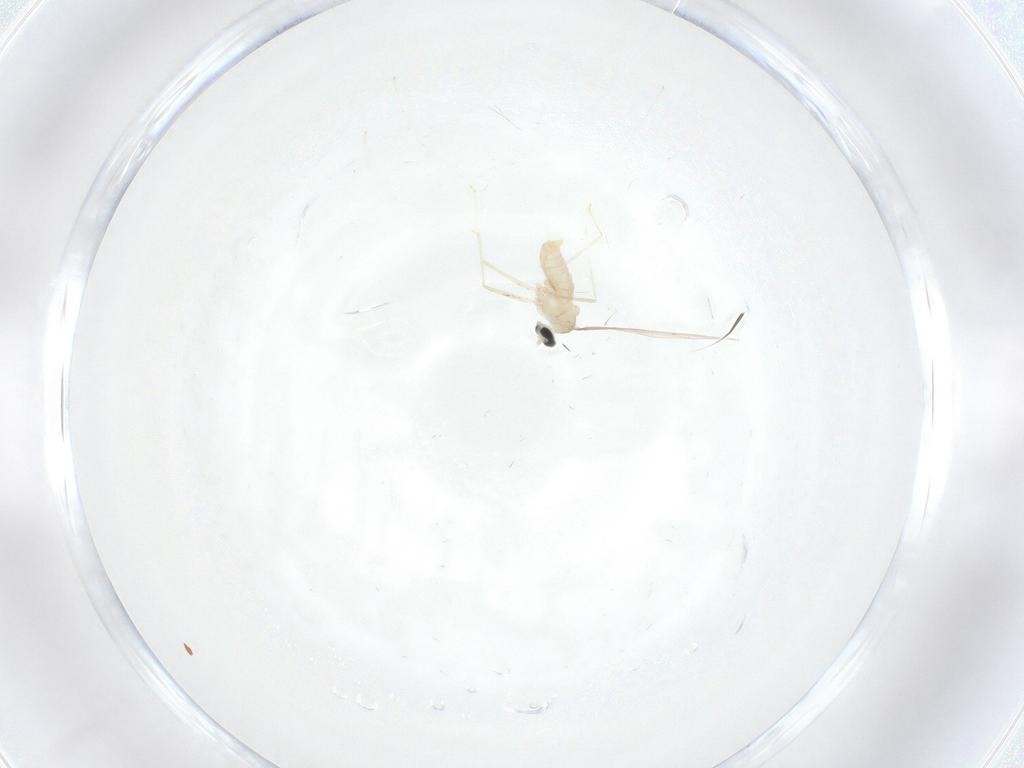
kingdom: Animalia
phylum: Arthropoda
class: Insecta
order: Diptera
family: Cecidomyiidae
